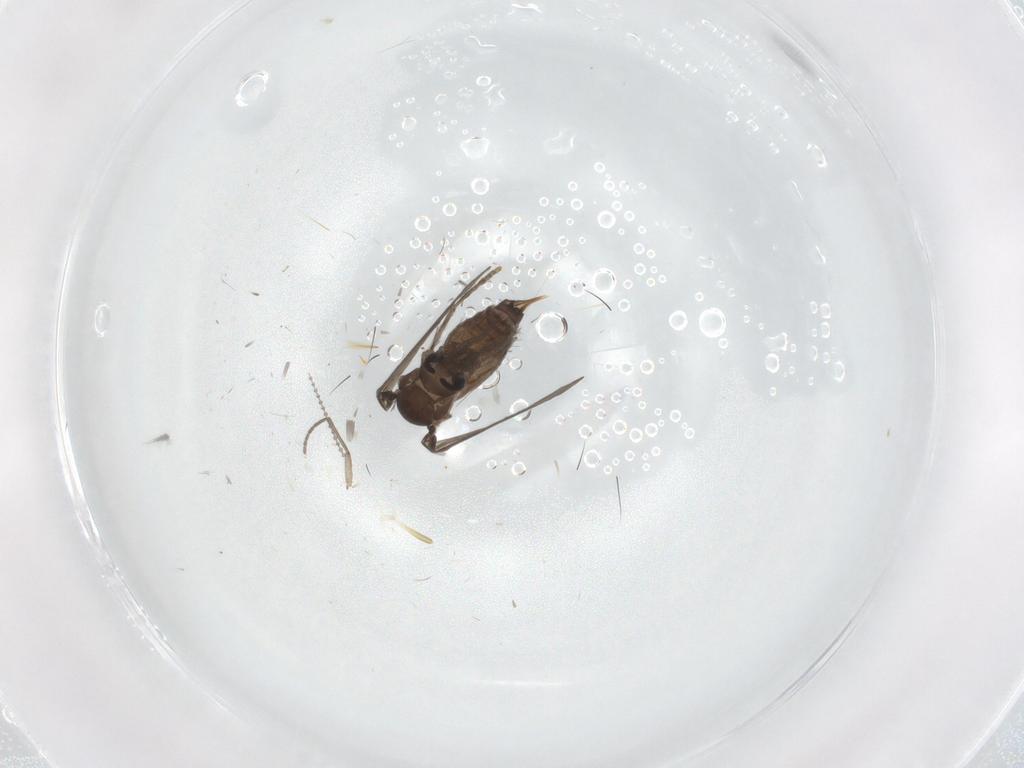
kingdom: Animalia
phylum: Arthropoda
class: Insecta
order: Diptera
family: Psychodidae
